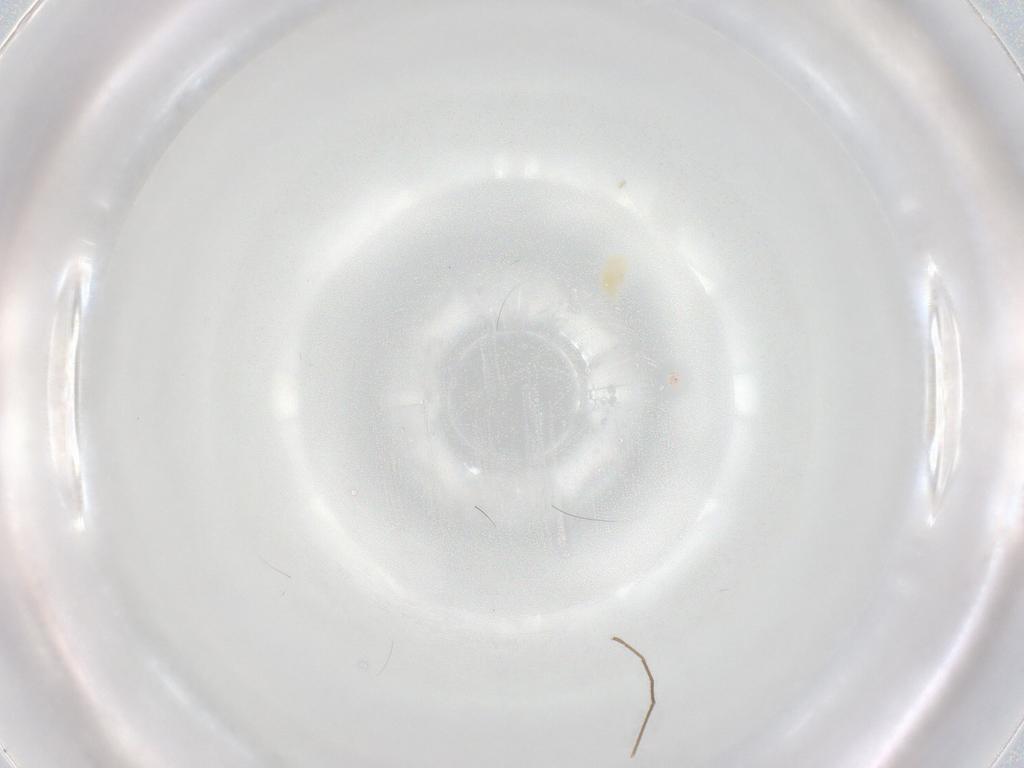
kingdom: Animalia
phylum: Arthropoda
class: Arachnida
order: Trombidiformes
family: Eupodidae
